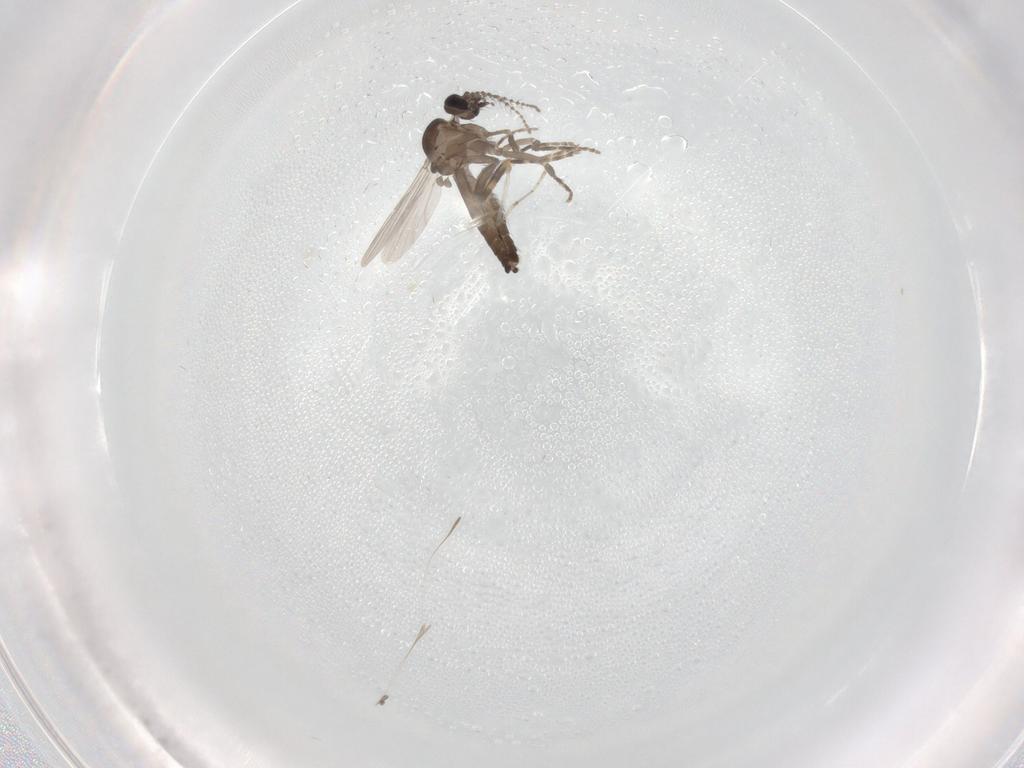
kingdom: Animalia
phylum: Arthropoda
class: Insecta
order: Diptera
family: Ceratopogonidae
